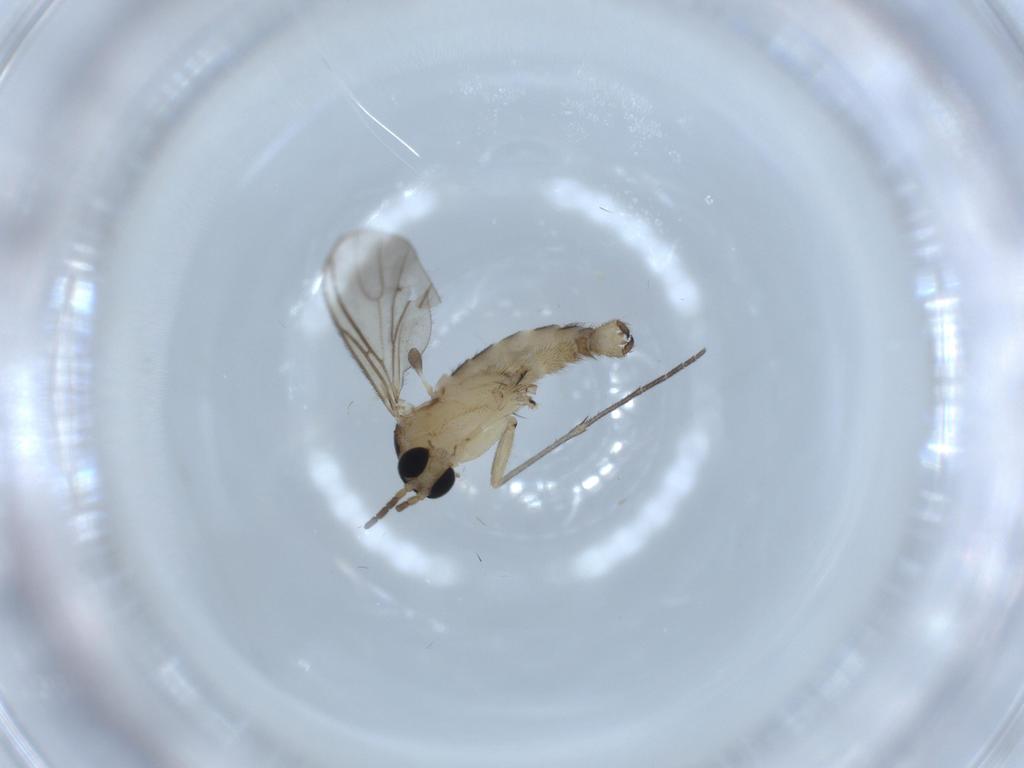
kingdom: Animalia
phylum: Arthropoda
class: Insecta
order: Diptera
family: Sciaridae
